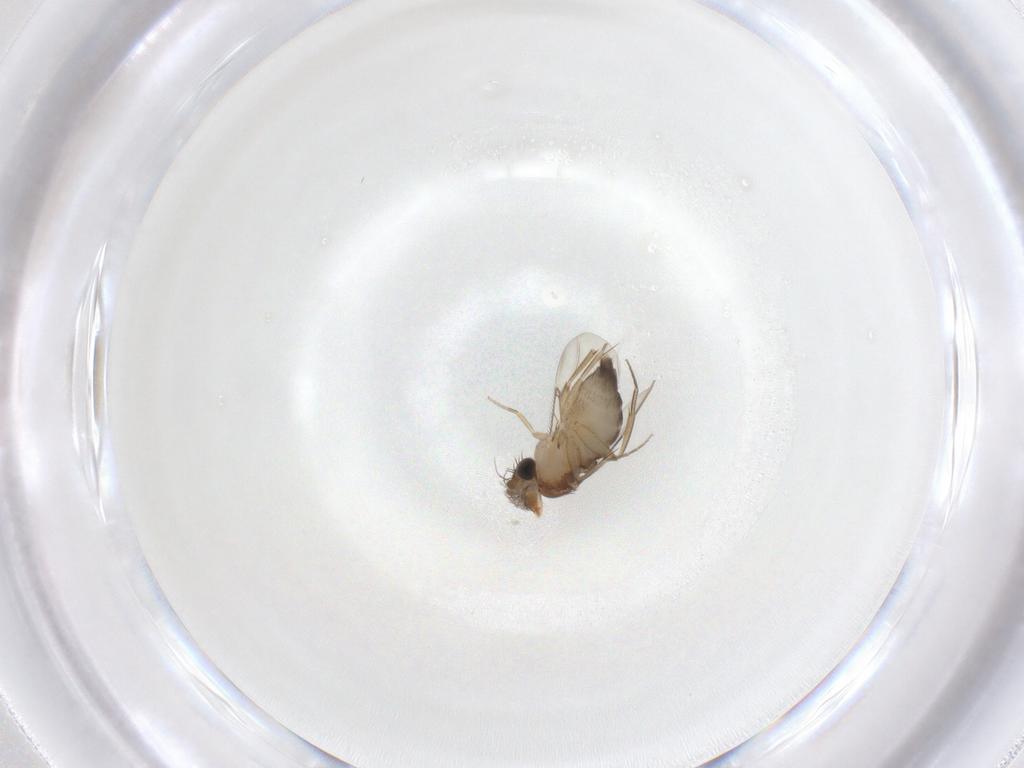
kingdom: Animalia
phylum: Arthropoda
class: Insecta
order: Diptera
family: Phoridae
